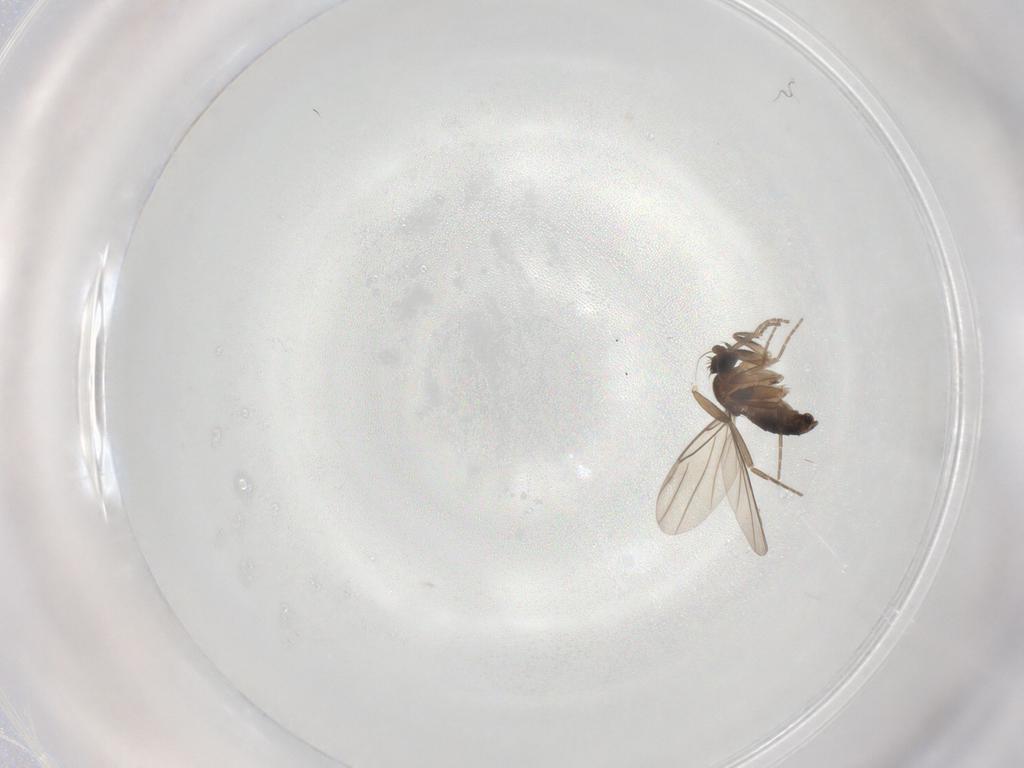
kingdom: Animalia
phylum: Arthropoda
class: Insecta
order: Diptera
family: Phoridae
